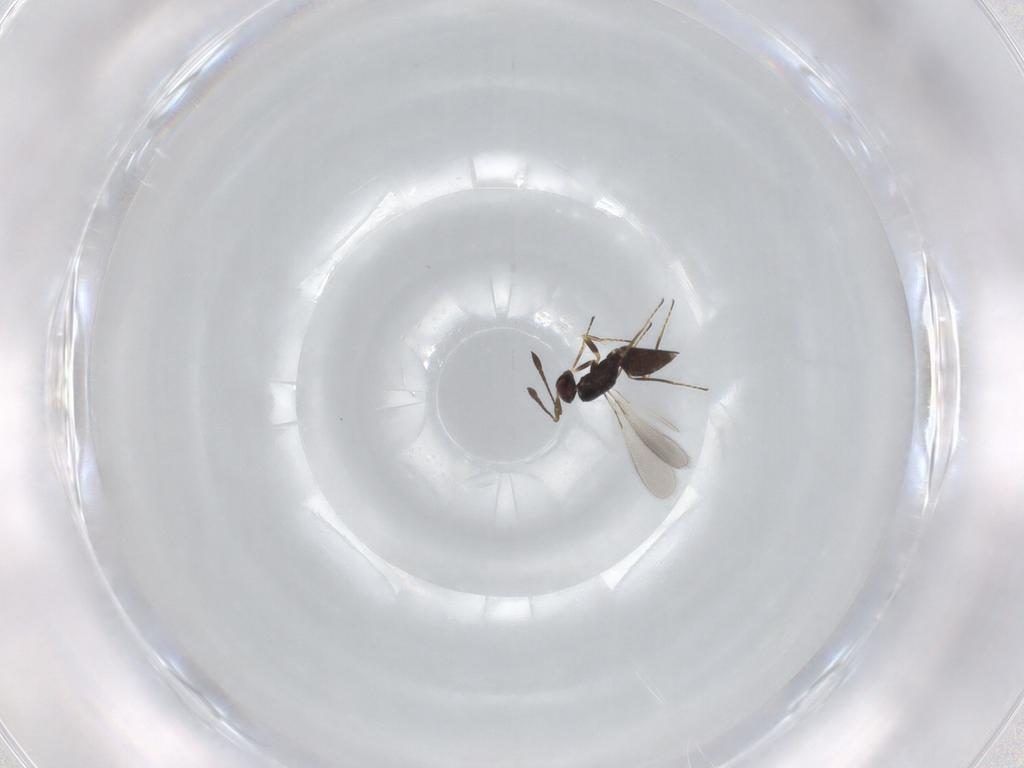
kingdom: Animalia
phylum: Arthropoda
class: Insecta
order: Hymenoptera
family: Mymaridae
